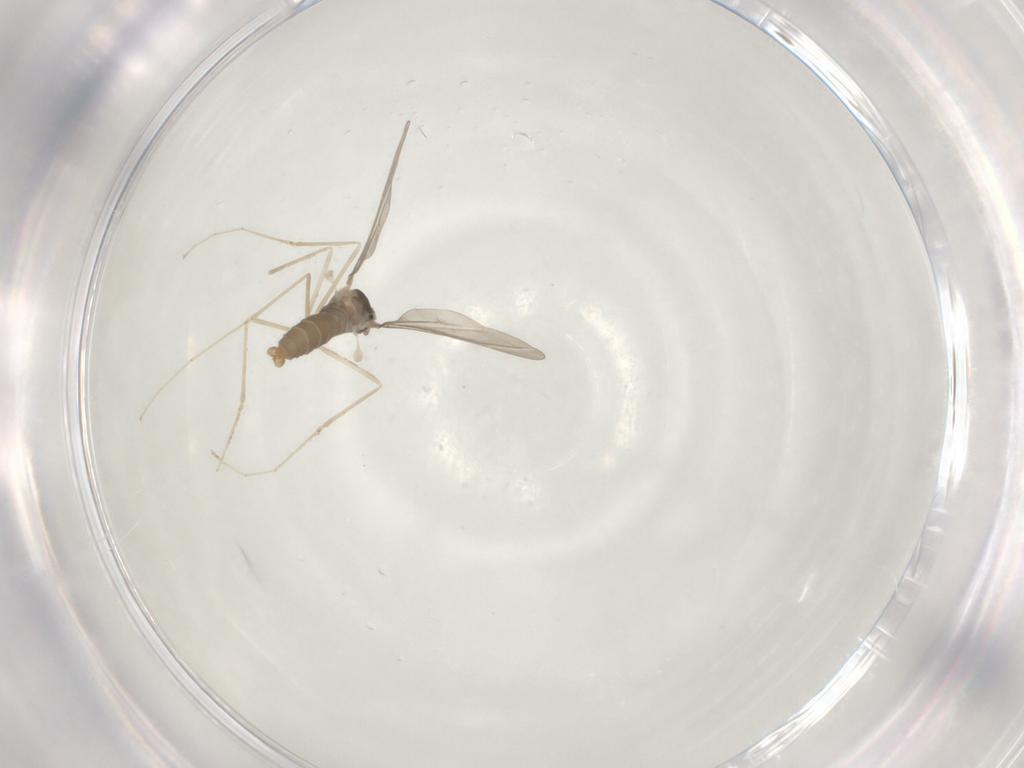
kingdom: Animalia
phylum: Arthropoda
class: Insecta
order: Diptera
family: Cecidomyiidae
